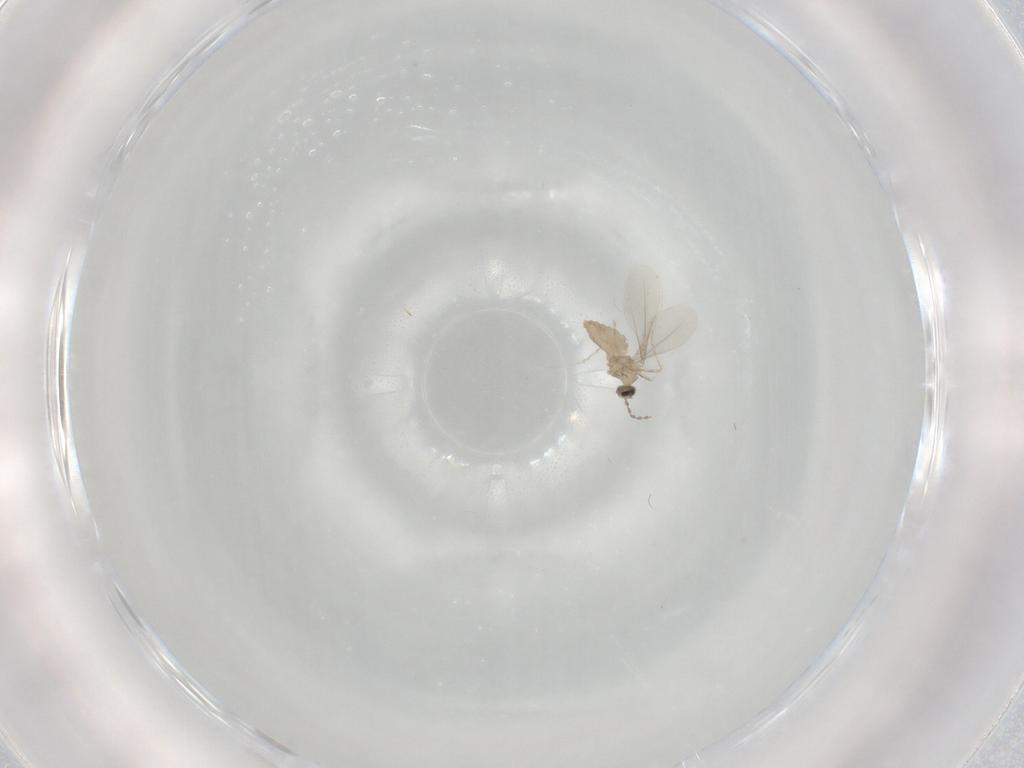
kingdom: Animalia
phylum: Arthropoda
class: Insecta
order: Diptera
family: Cecidomyiidae
